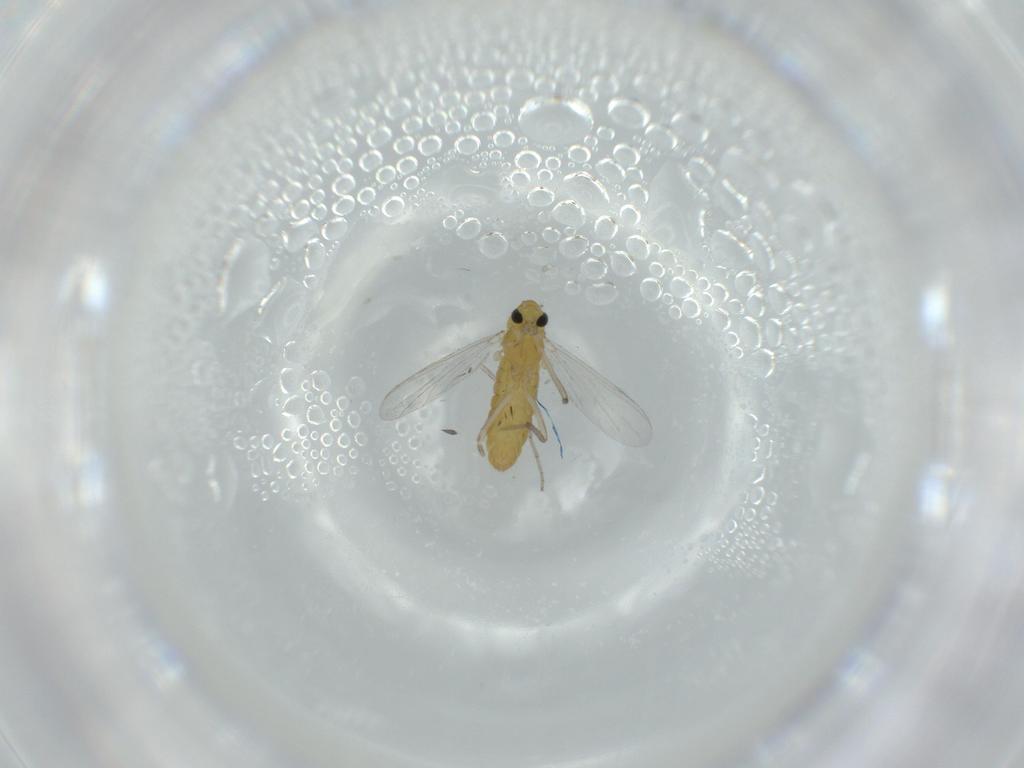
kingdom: Animalia
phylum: Arthropoda
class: Insecta
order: Diptera
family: Chironomidae
